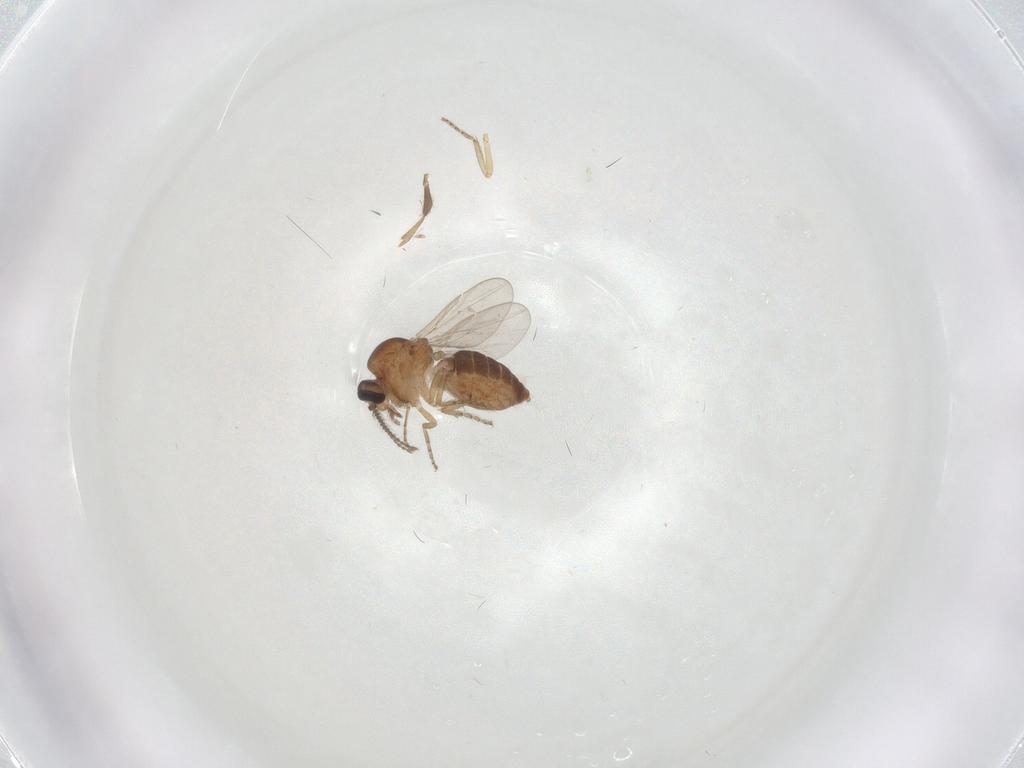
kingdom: Animalia
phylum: Arthropoda
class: Insecta
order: Diptera
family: Ceratopogonidae
